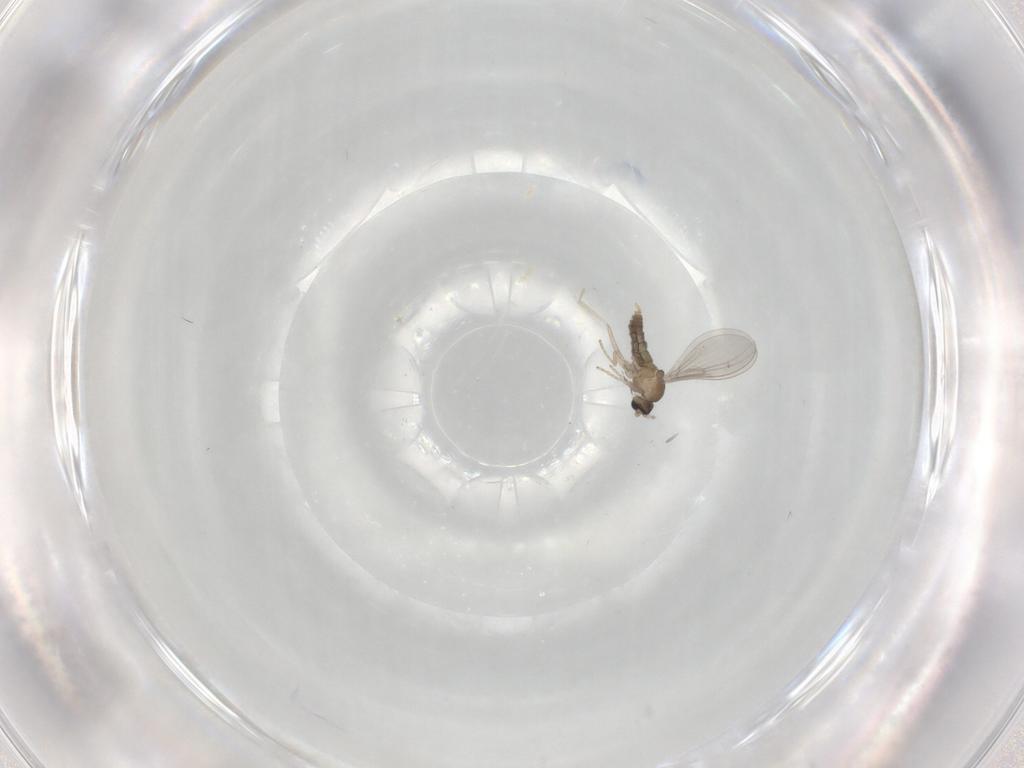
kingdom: Animalia
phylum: Arthropoda
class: Insecta
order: Diptera
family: Cecidomyiidae
